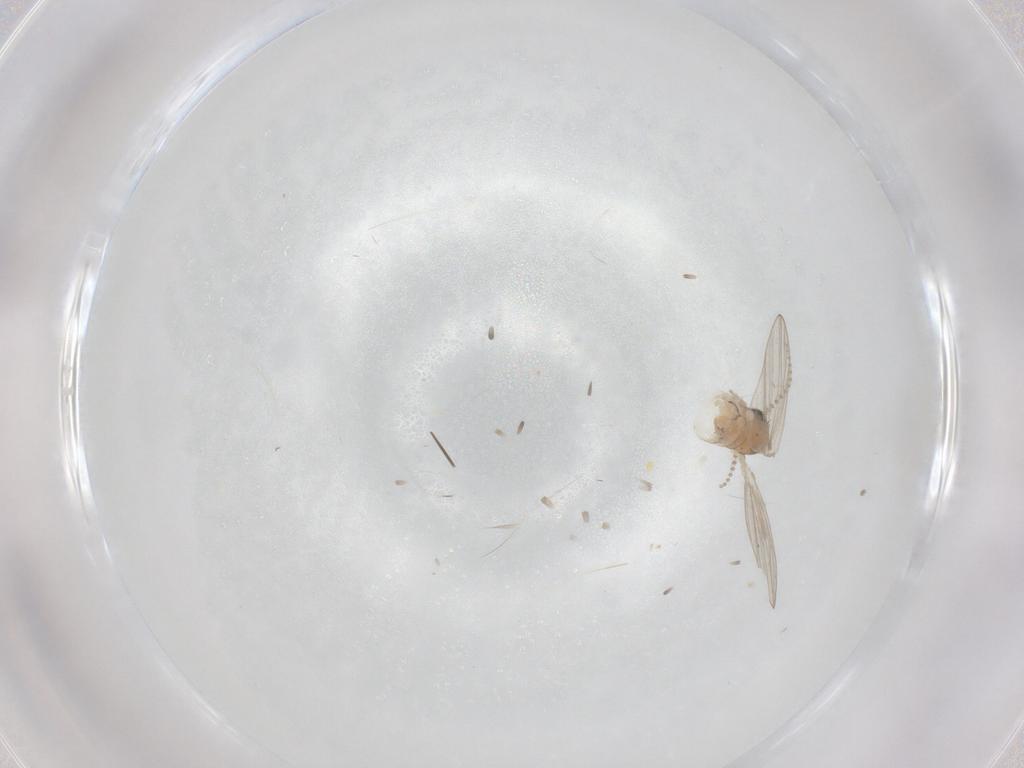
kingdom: Animalia
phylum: Arthropoda
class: Insecta
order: Diptera
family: Psychodidae
